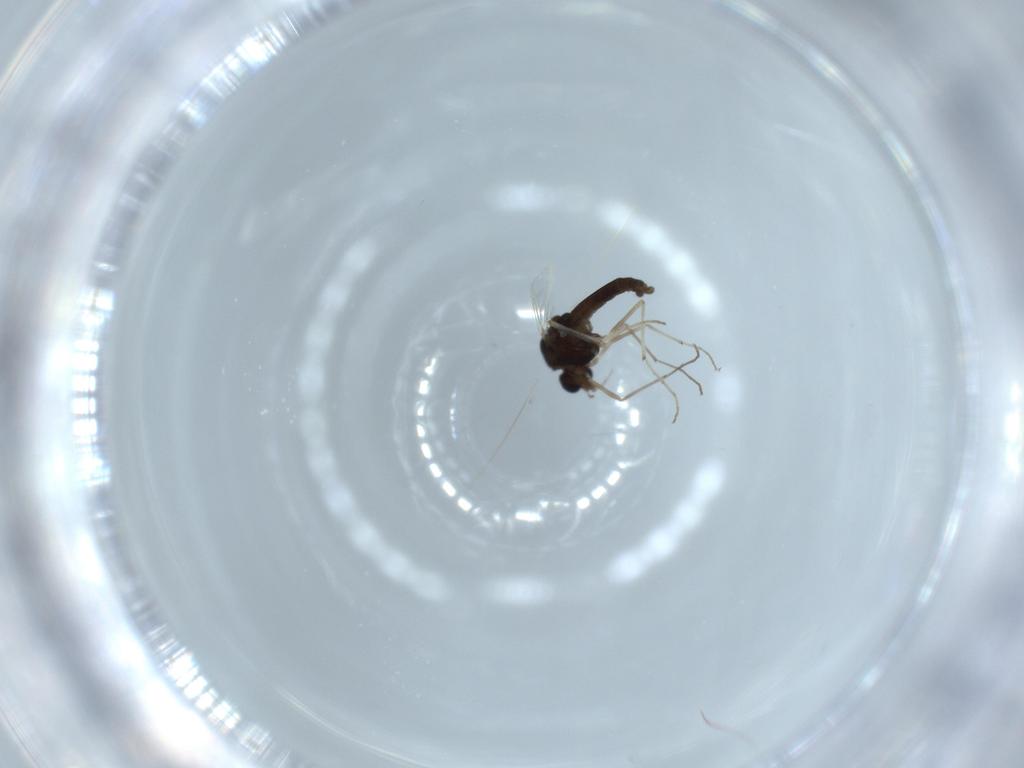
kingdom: Animalia
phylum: Arthropoda
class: Insecta
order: Diptera
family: Chironomidae
